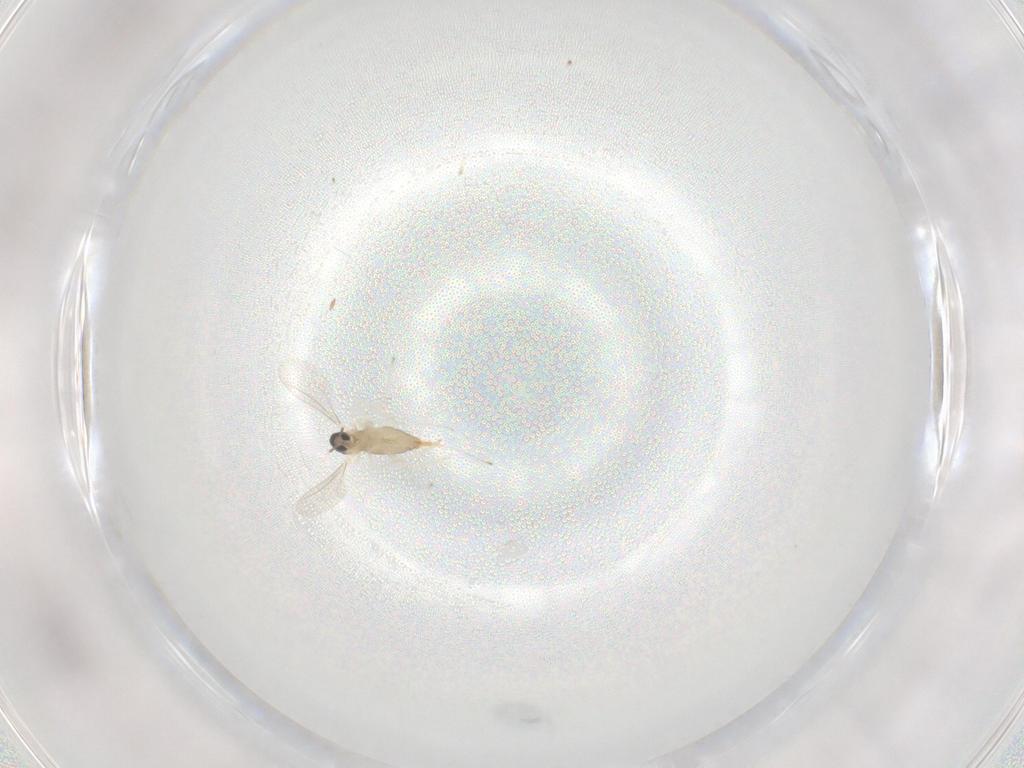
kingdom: Animalia
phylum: Arthropoda
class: Insecta
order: Diptera
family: Cecidomyiidae
